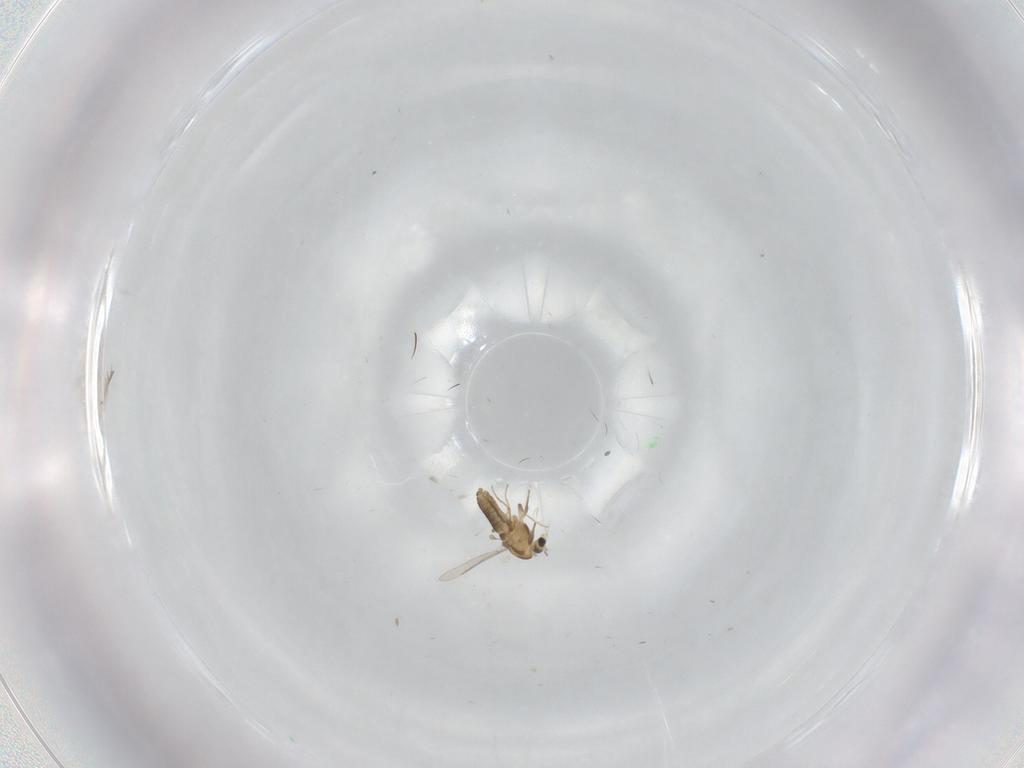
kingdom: Animalia
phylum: Arthropoda
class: Insecta
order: Diptera
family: Chironomidae
